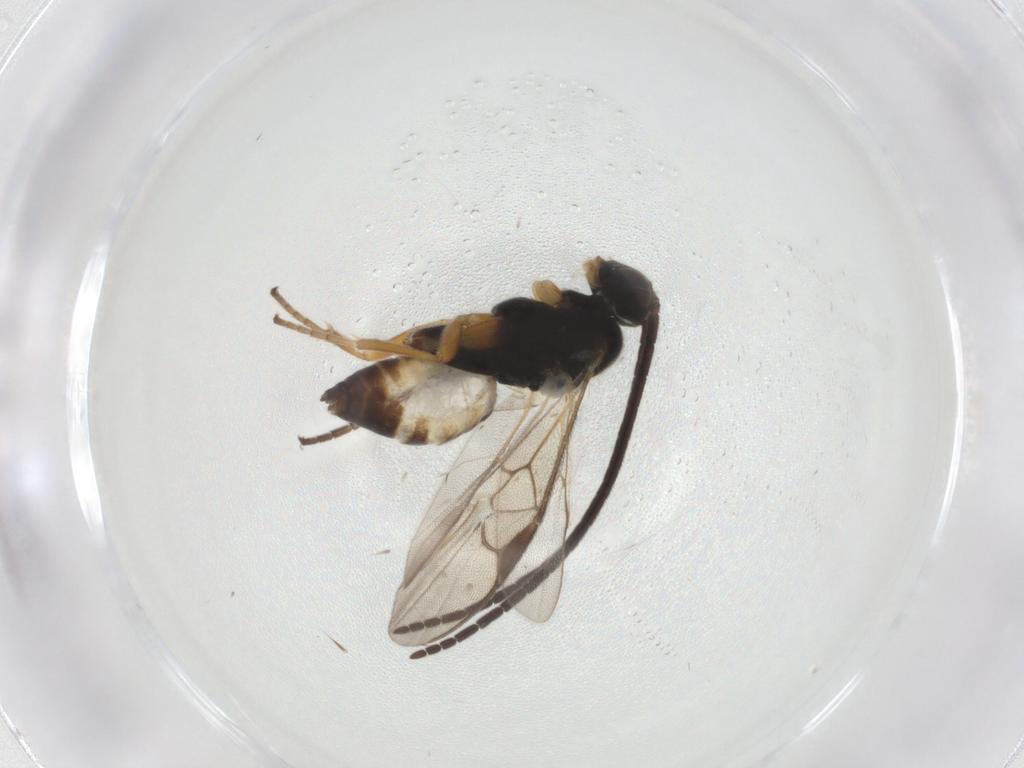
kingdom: Animalia
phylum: Arthropoda
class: Insecta
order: Hymenoptera
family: Braconidae
